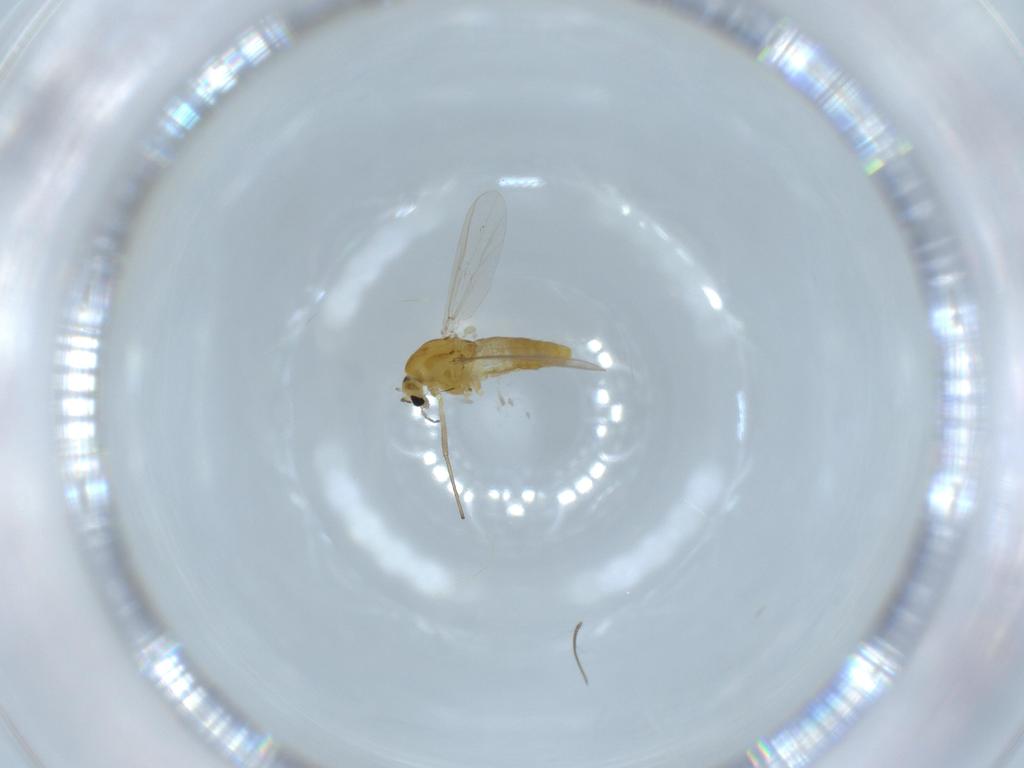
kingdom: Animalia
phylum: Arthropoda
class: Insecta
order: Diptera
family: Chironomidae
